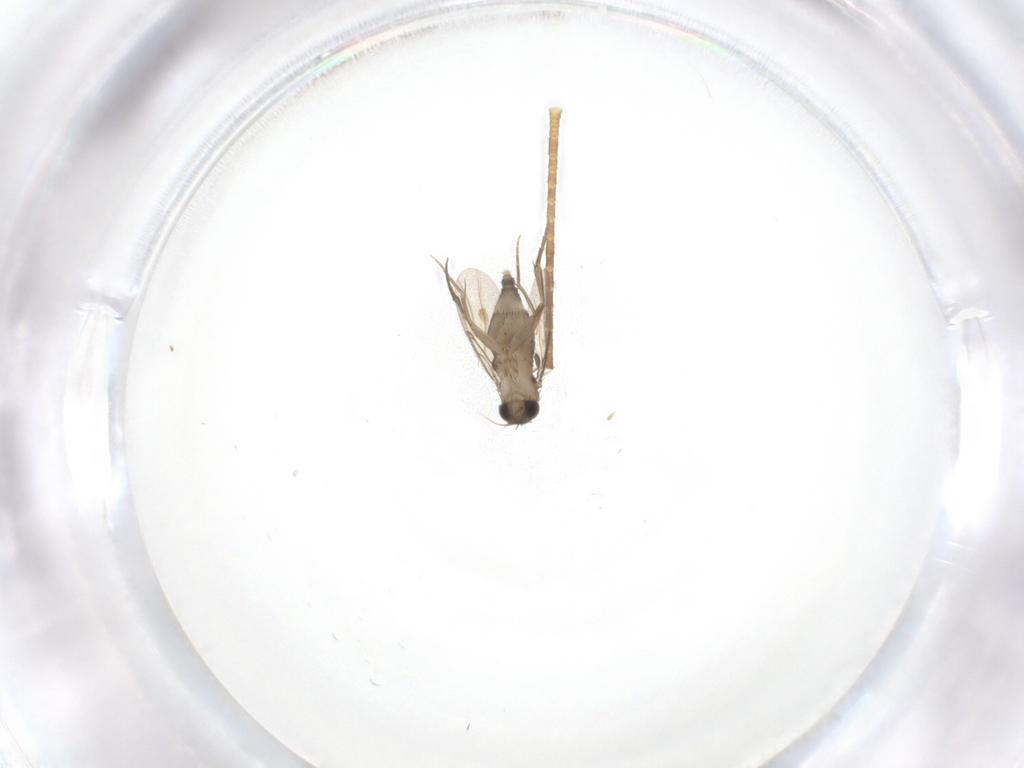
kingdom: Animalia
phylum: Arthropoda
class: Insecta
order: Diptera
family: Phoridae
